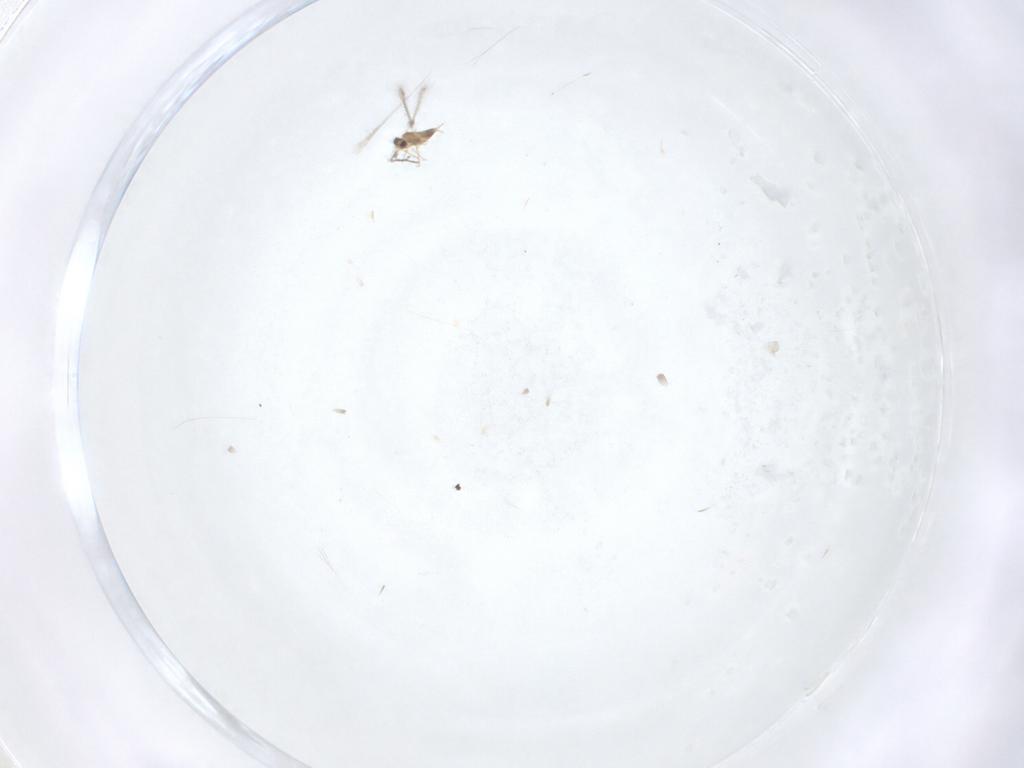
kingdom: Animalia
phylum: Arthropoda
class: Insecta
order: Hymenoptera
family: Mymaridae
